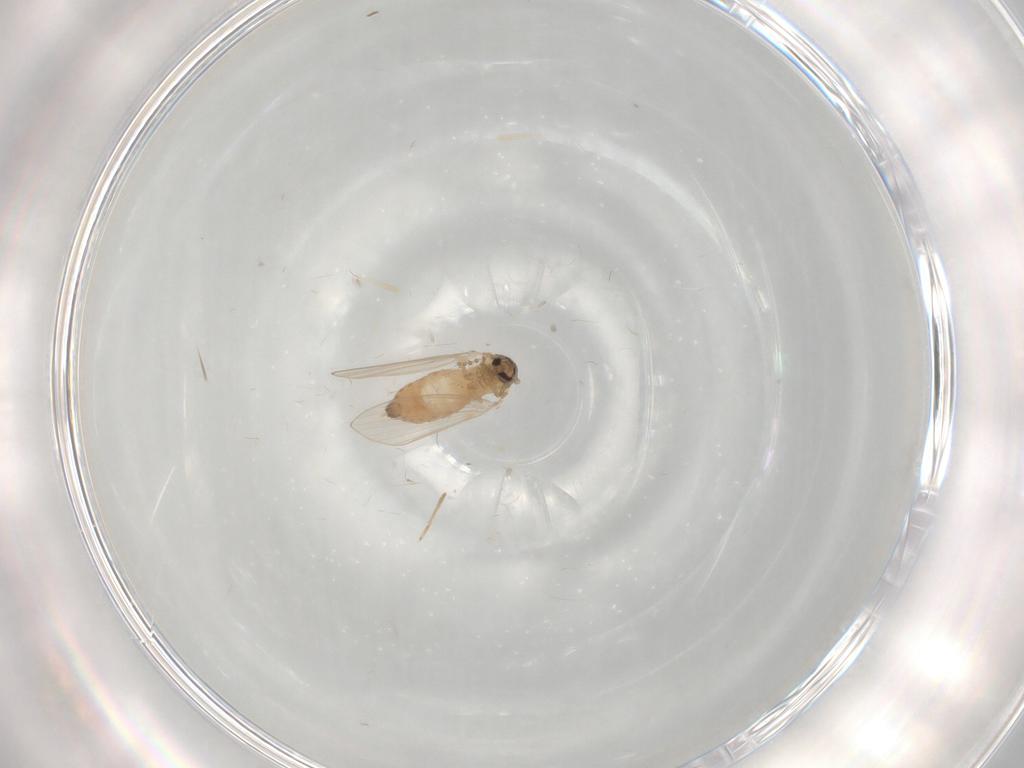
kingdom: Animalia
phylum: Arthropoda
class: Insecta
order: Diptera
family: Psychodidae
